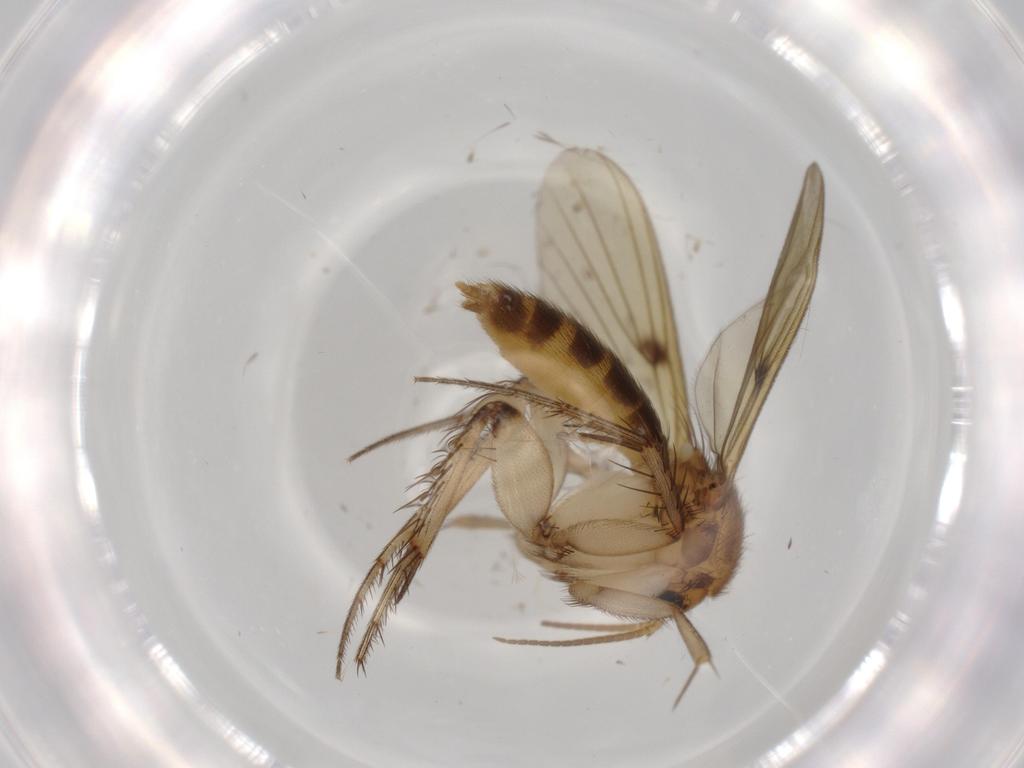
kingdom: Animalia
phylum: Arthropoda
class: Insecta
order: Diptera
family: Mycetophilidae
